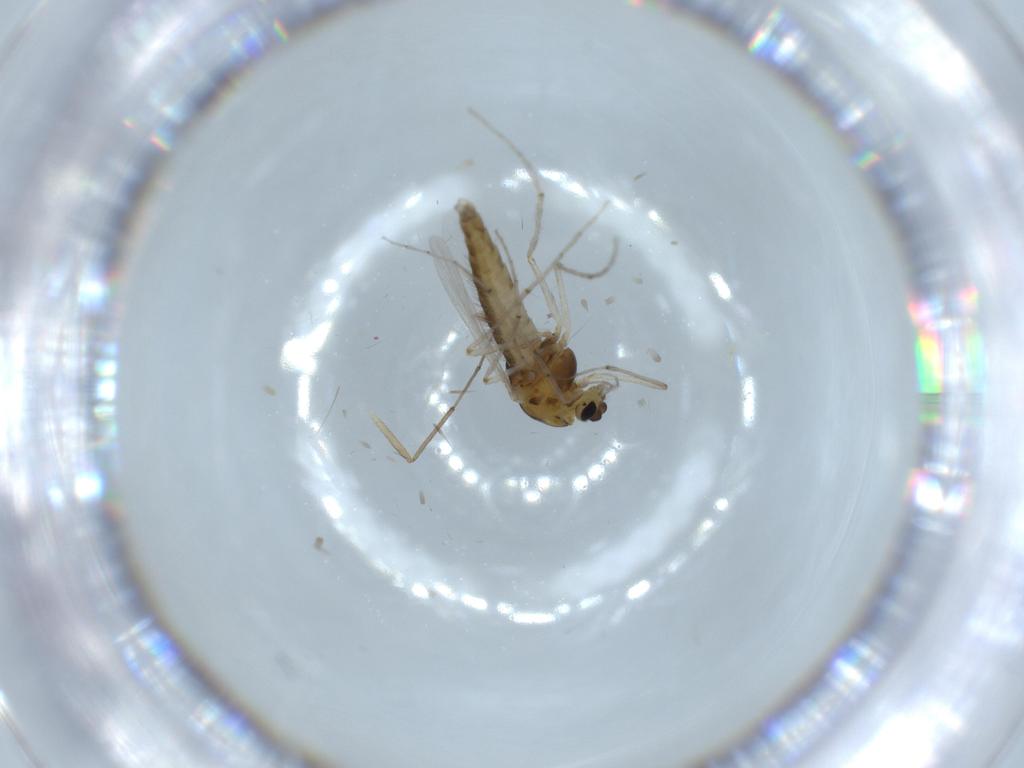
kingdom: Animalia
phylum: Arthropoda
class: Insecta
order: Diptera
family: Chironomidae
